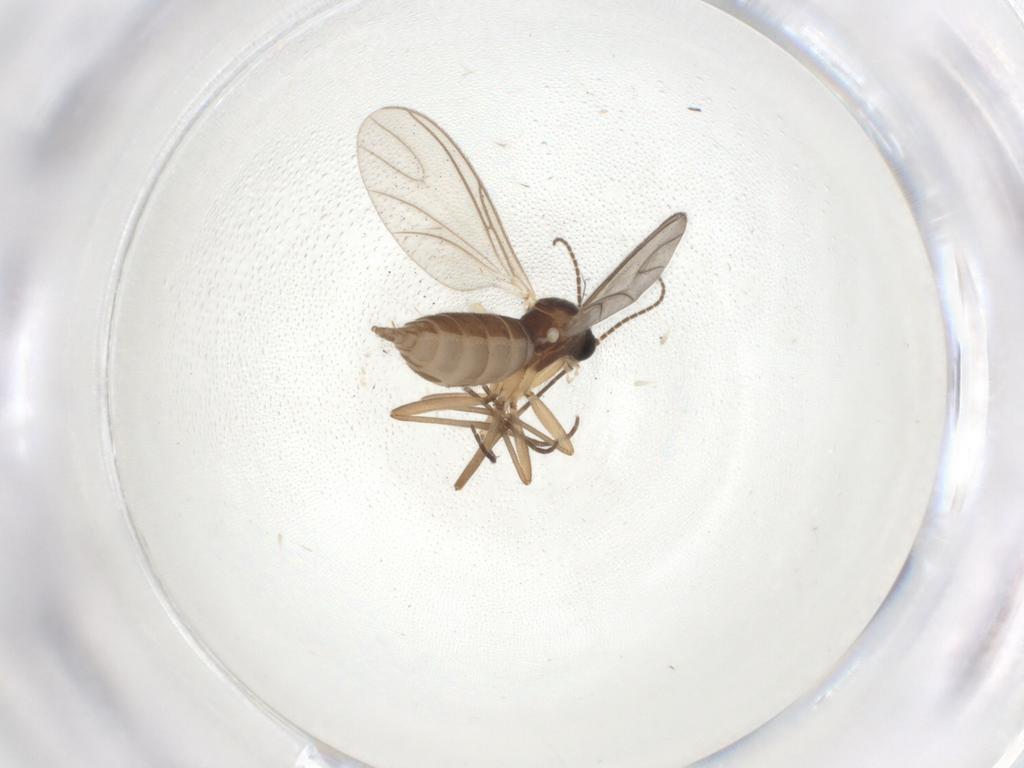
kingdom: Animalia
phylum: Arthropoda
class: Insecta
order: Diptera
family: Sciaridae
